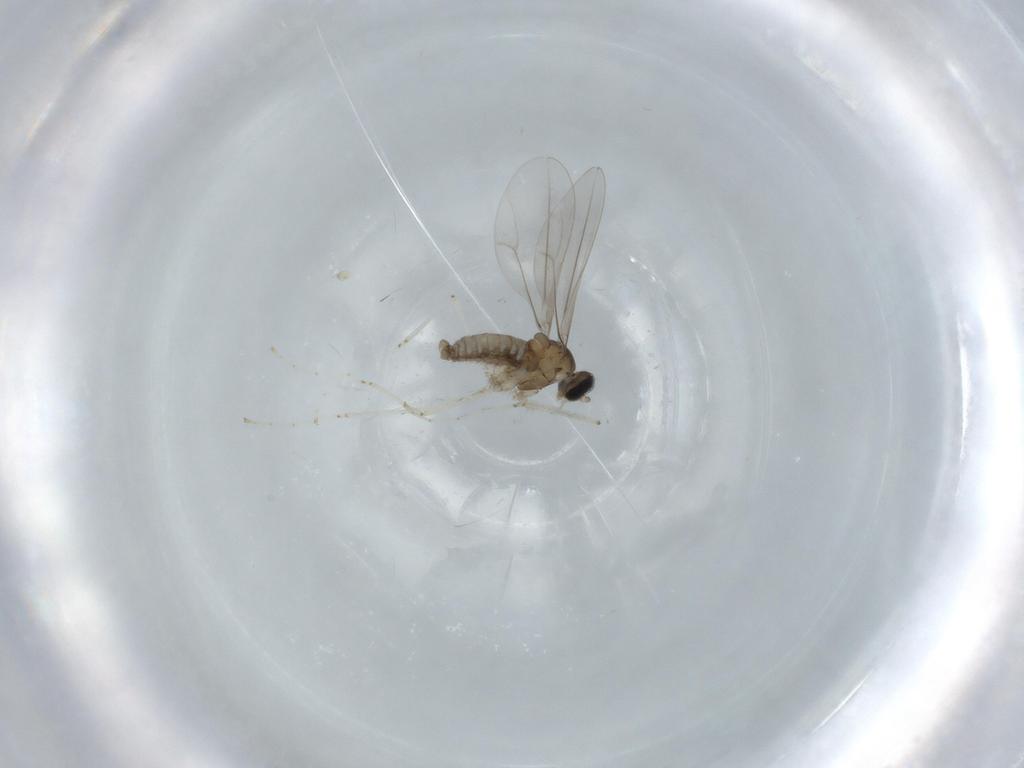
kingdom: Animalia
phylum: Arthropoda
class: Insecta
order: Diptera
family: Cecidomyiidae
